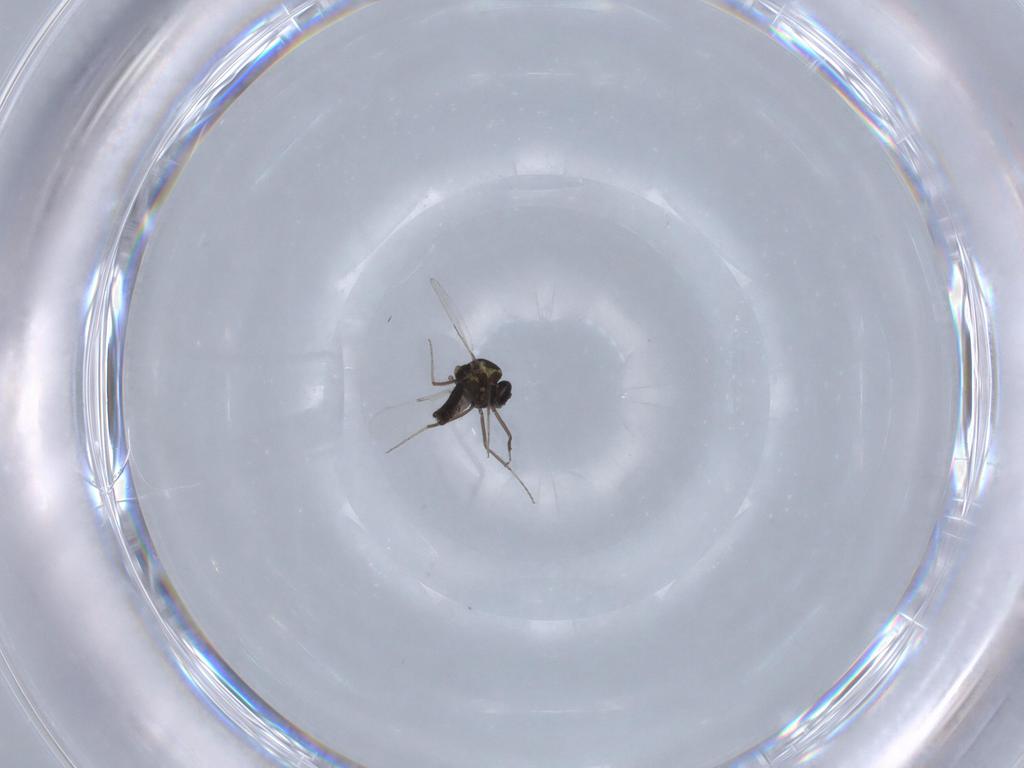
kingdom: Animalia
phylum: Arthropoda
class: Insecta
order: Diptera
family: Ceratopogonidae
